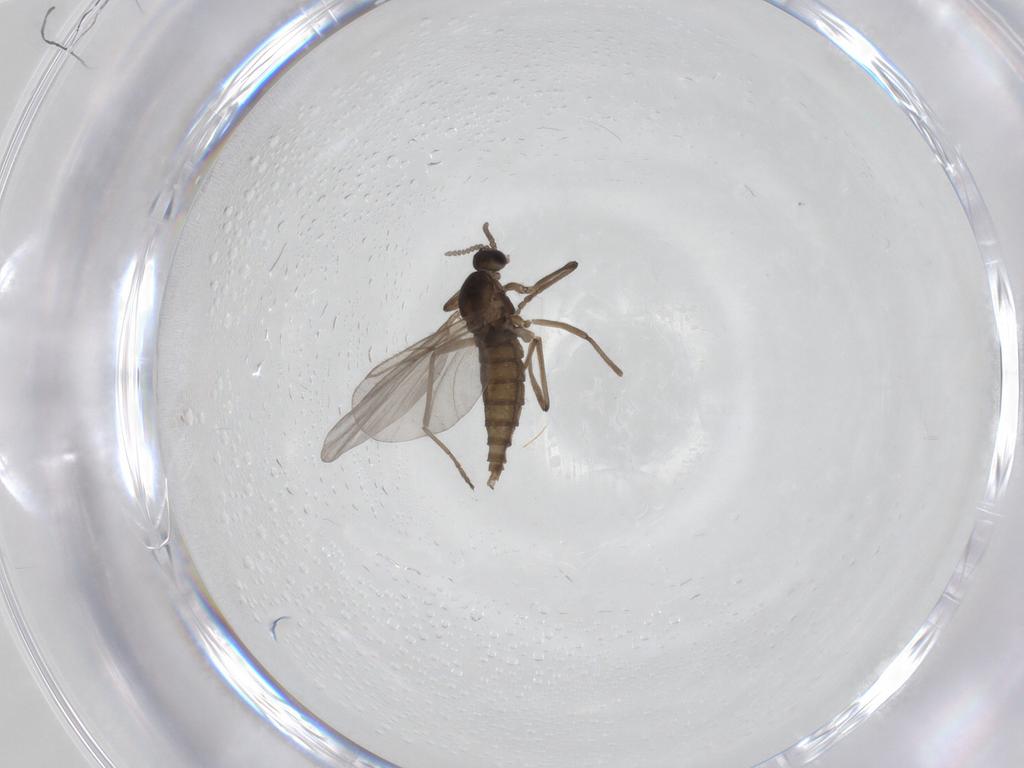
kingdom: Animalia
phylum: Arthropoda
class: Insecta
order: Diptera
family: Cecidomyiidae
